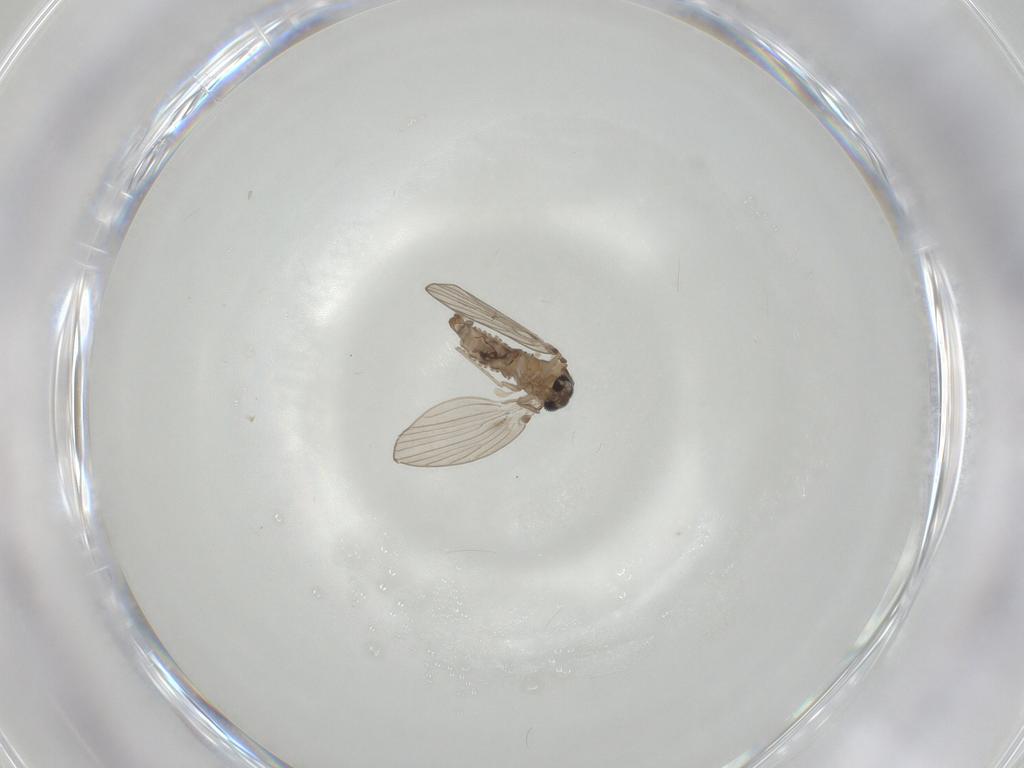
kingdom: Animalia
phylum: Arthropoda
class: Insecta
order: Diptera
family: Psychodidae
